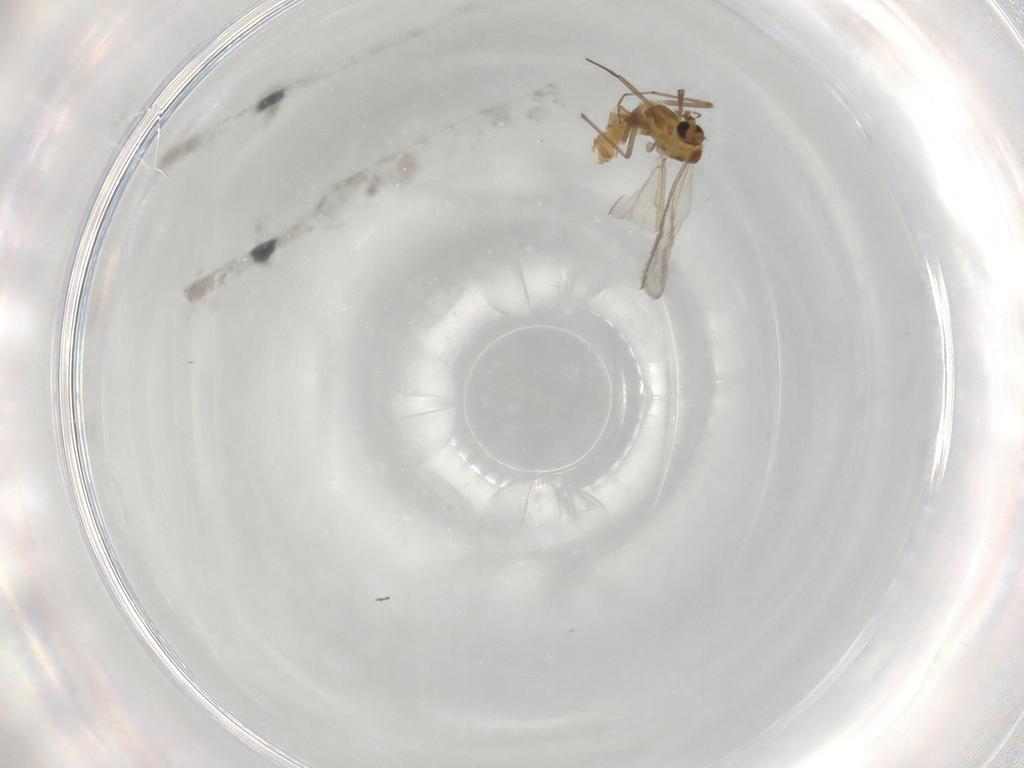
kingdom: Animalia
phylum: Arthropoda
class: Insecta
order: Diptera
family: Chironomidae
